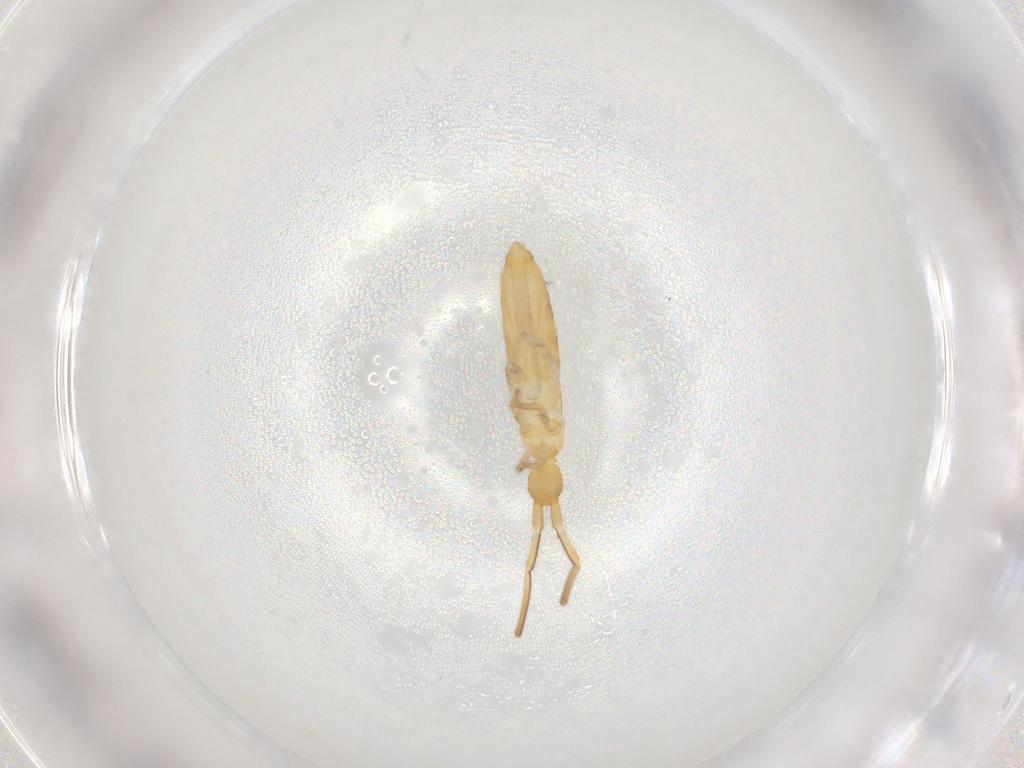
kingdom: Animalia
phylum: Arthropoda
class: Collembola
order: Entomobryomorpha
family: Entomobryidae
